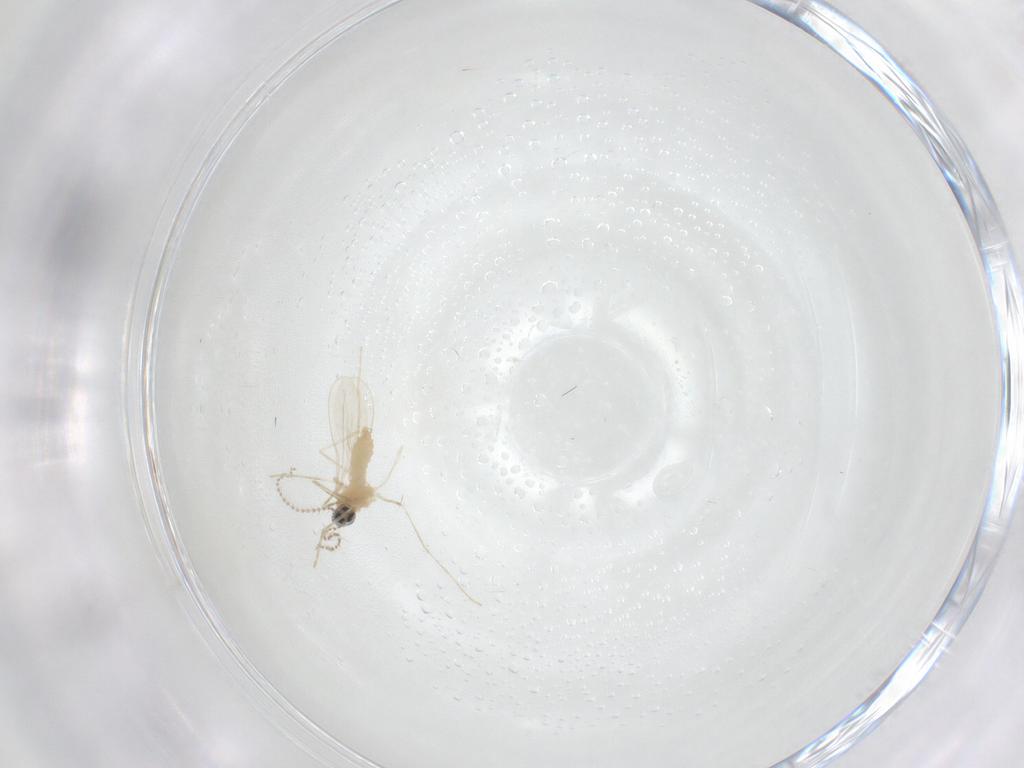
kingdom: Animalia
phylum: Arthropoda
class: Insecta
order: Diptera
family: Cecidomyiidae
